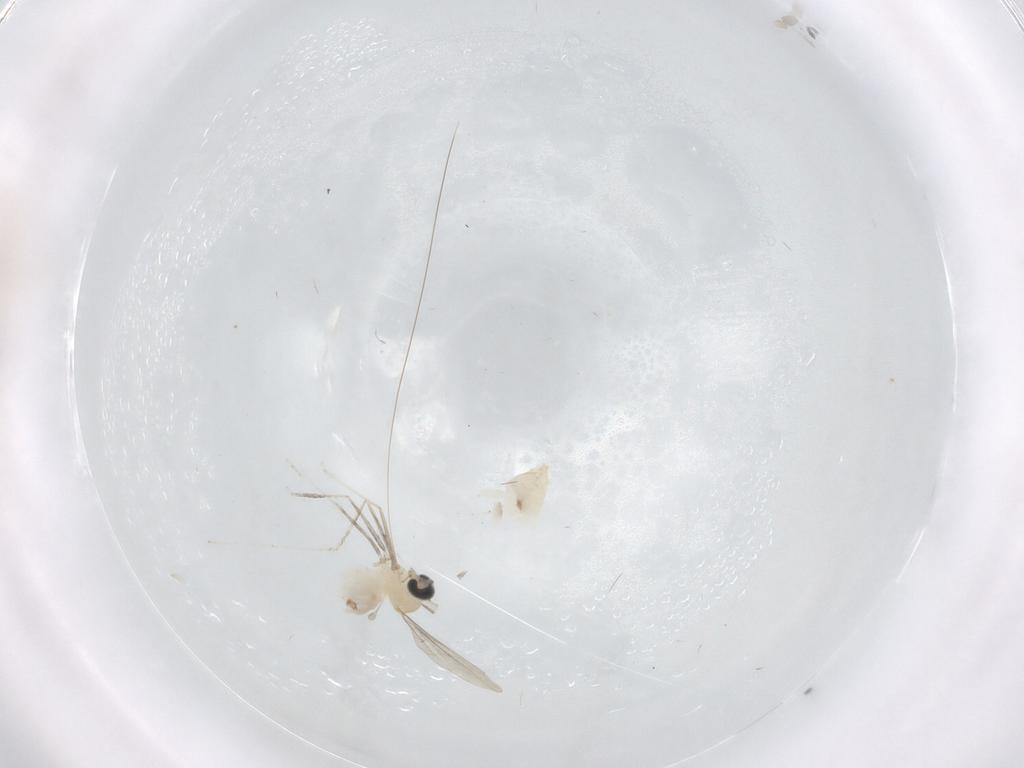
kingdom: Animalia
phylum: Arthropoda
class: Insecta
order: Diptera
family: Cecidomyiidae
